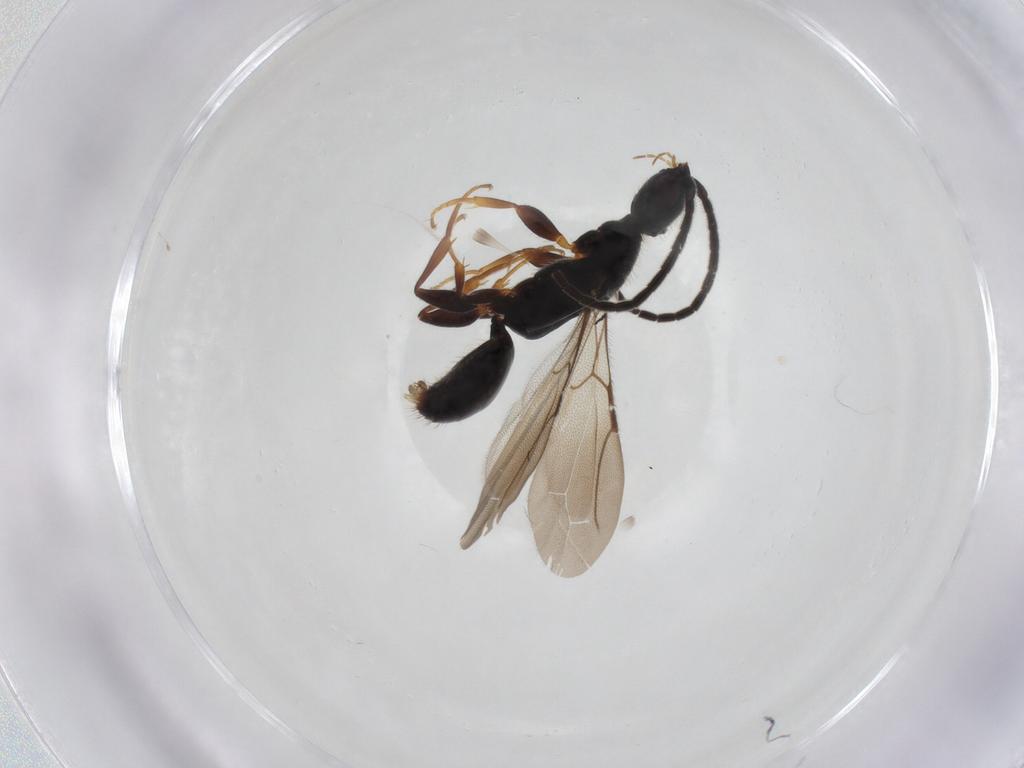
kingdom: Animalia
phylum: Arthropoda
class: Insecta
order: Hymenoptera
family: Bethylidae
